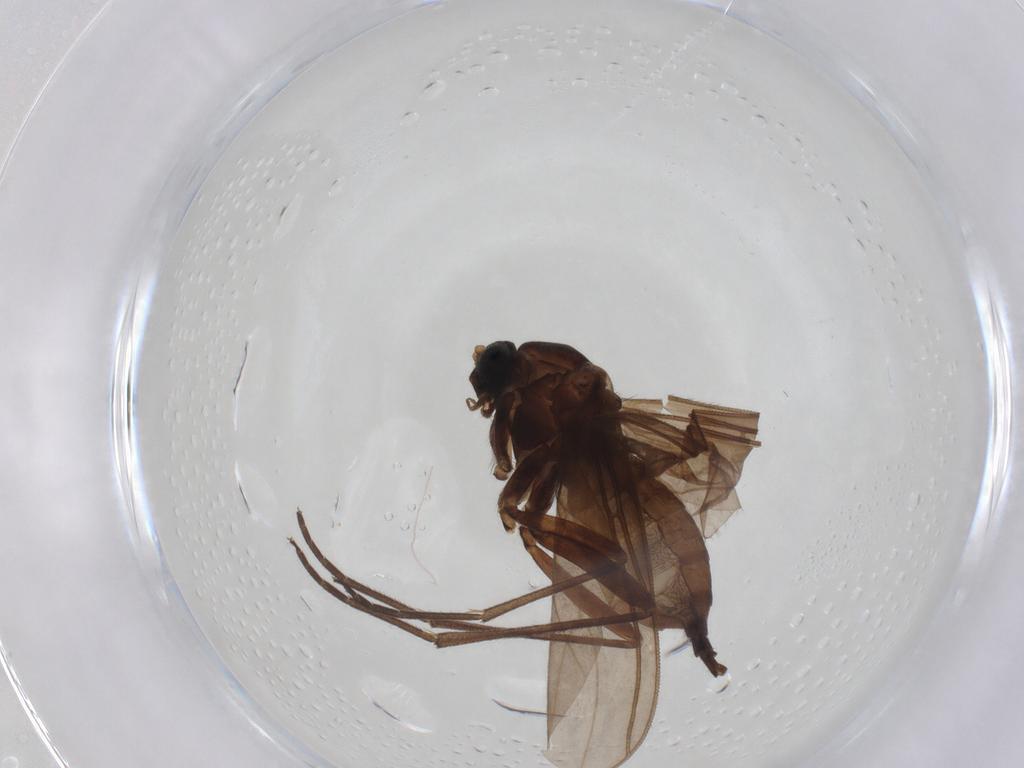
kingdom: Animalia
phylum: Arthropoda
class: Insecta
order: Diptera
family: Sciaridae
